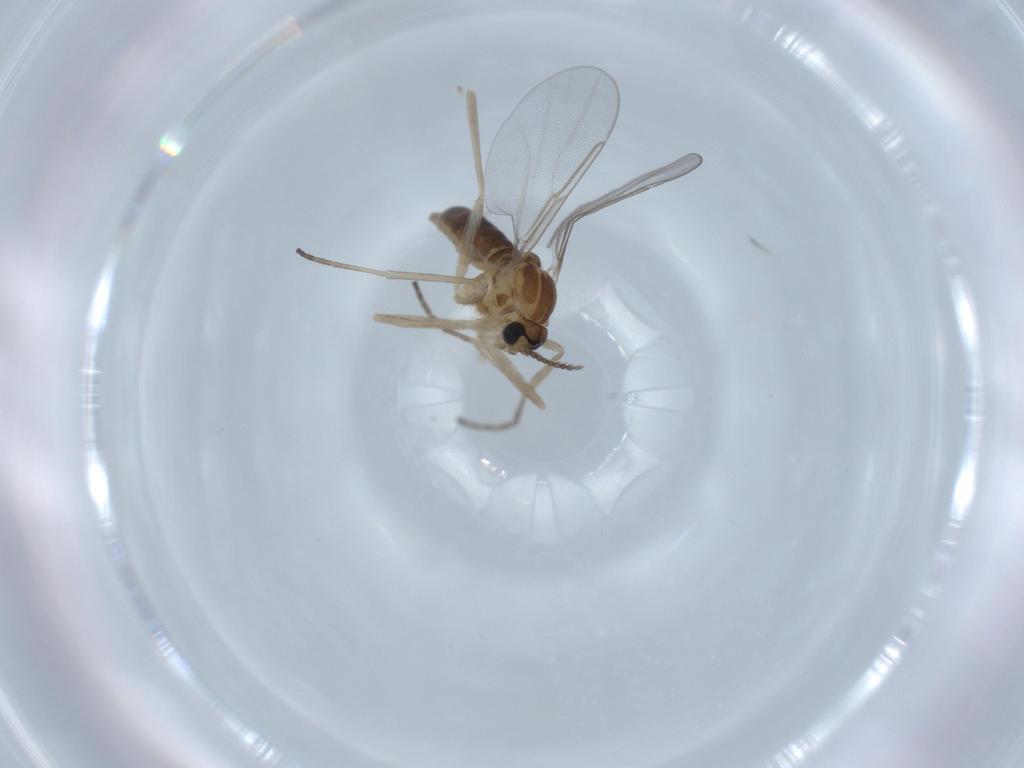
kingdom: Animalia
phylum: Arthropoda
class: Insecta
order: Diptera
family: Cecidomyiidae
